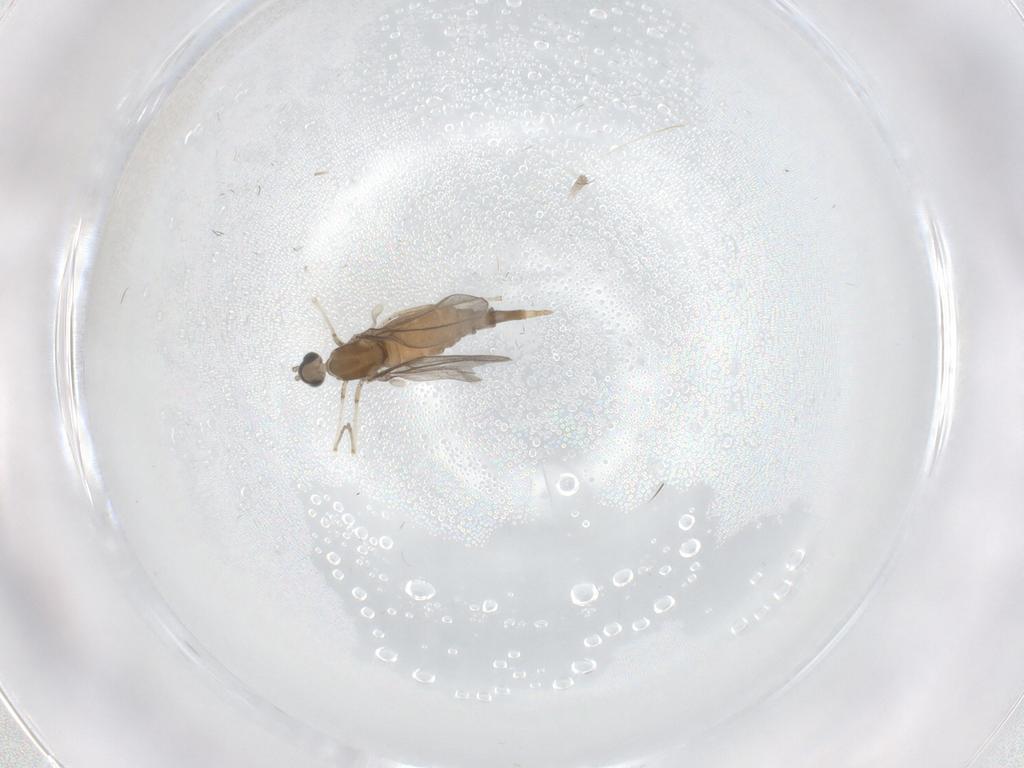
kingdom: Animalia
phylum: Arthropoda
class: Insecta
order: Diptera
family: Cecidomyiidae
